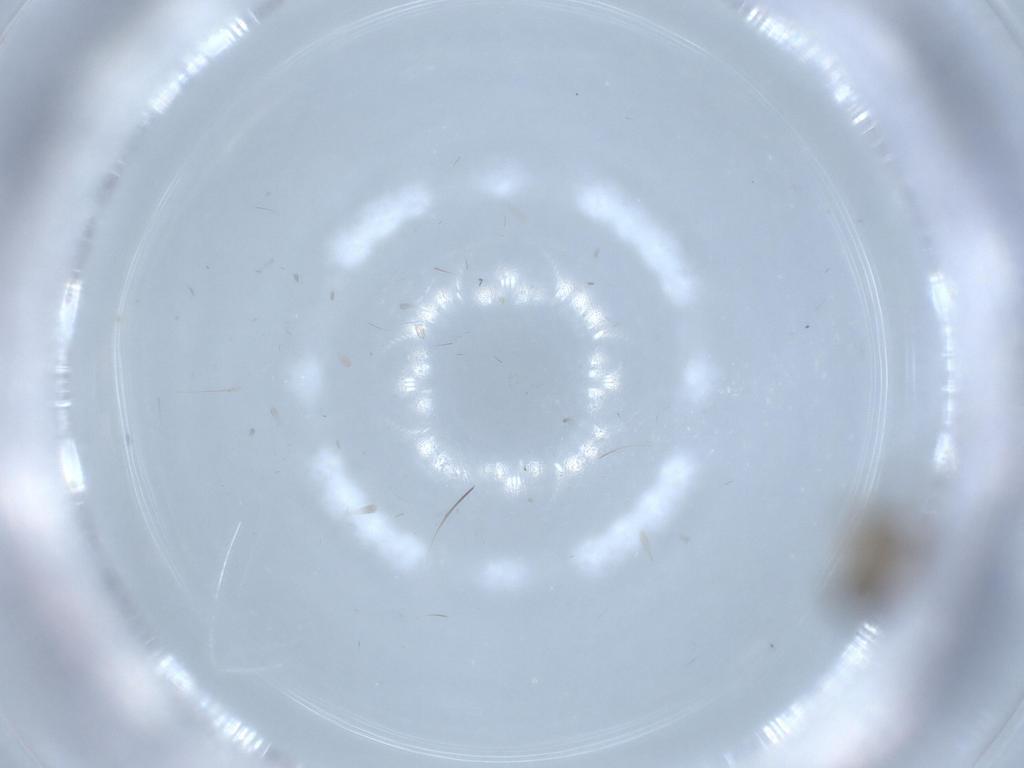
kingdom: Animalia
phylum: Arthropoda
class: Insecta
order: Diptera
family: Phoridae
